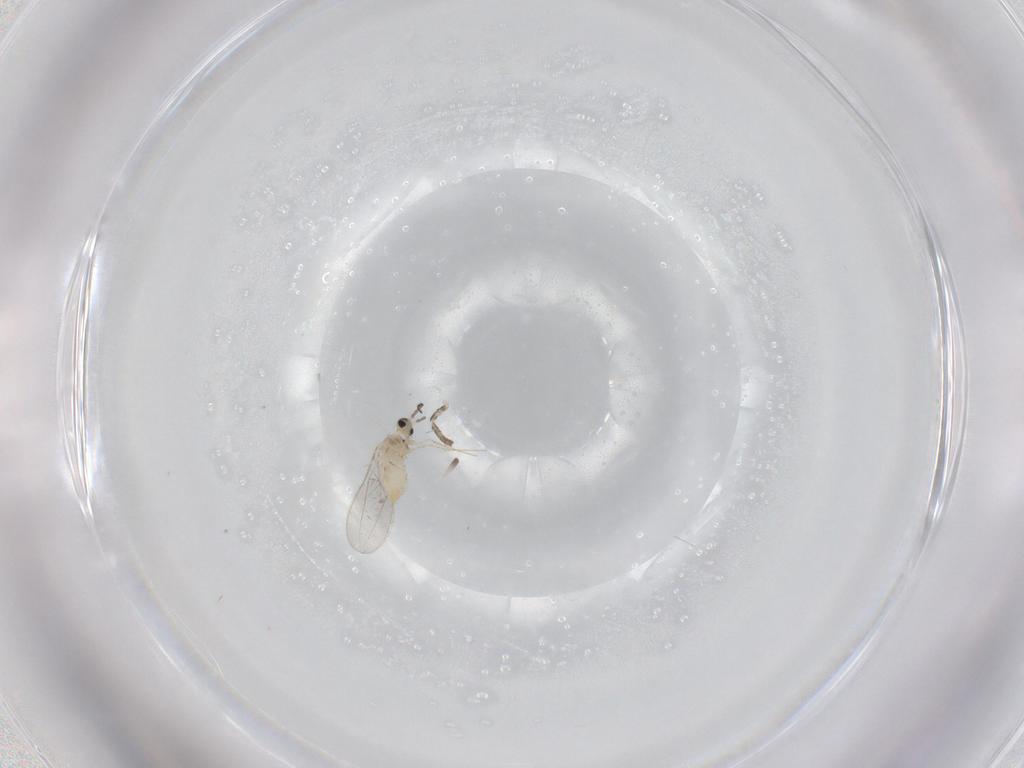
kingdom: Animalia
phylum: Arthropoda
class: Insecta
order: Diptera
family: Cecidomyiidae
